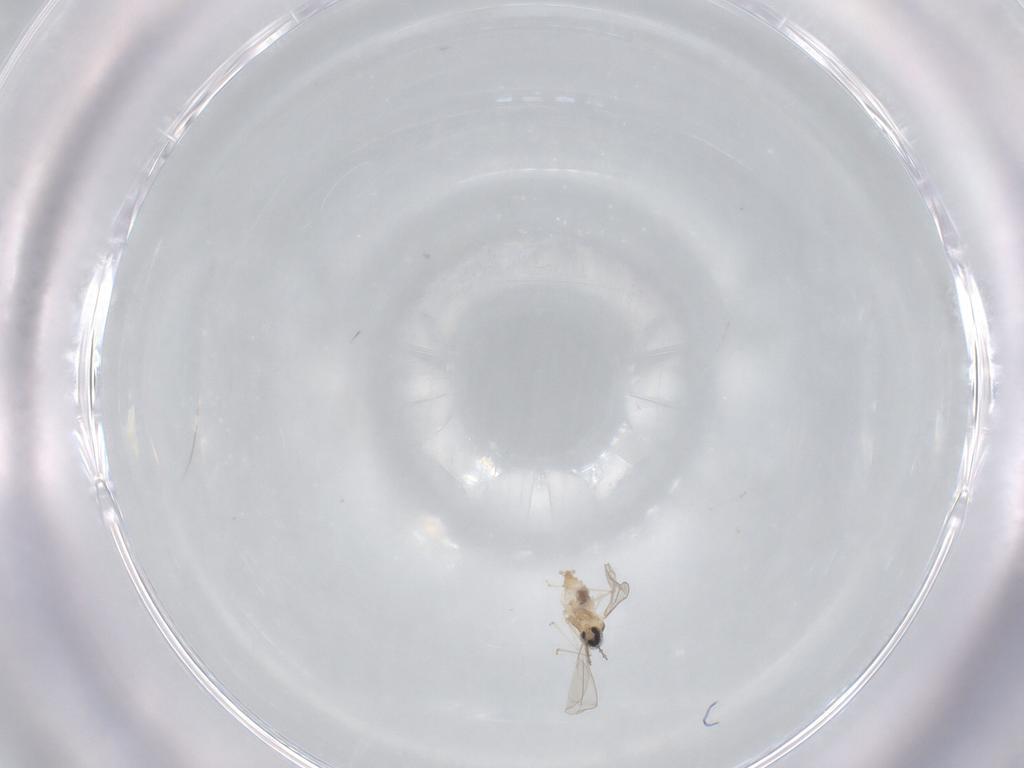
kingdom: Animalia
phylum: Arthropoda
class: Insecta
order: Diptera
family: Cecidomyiidae
